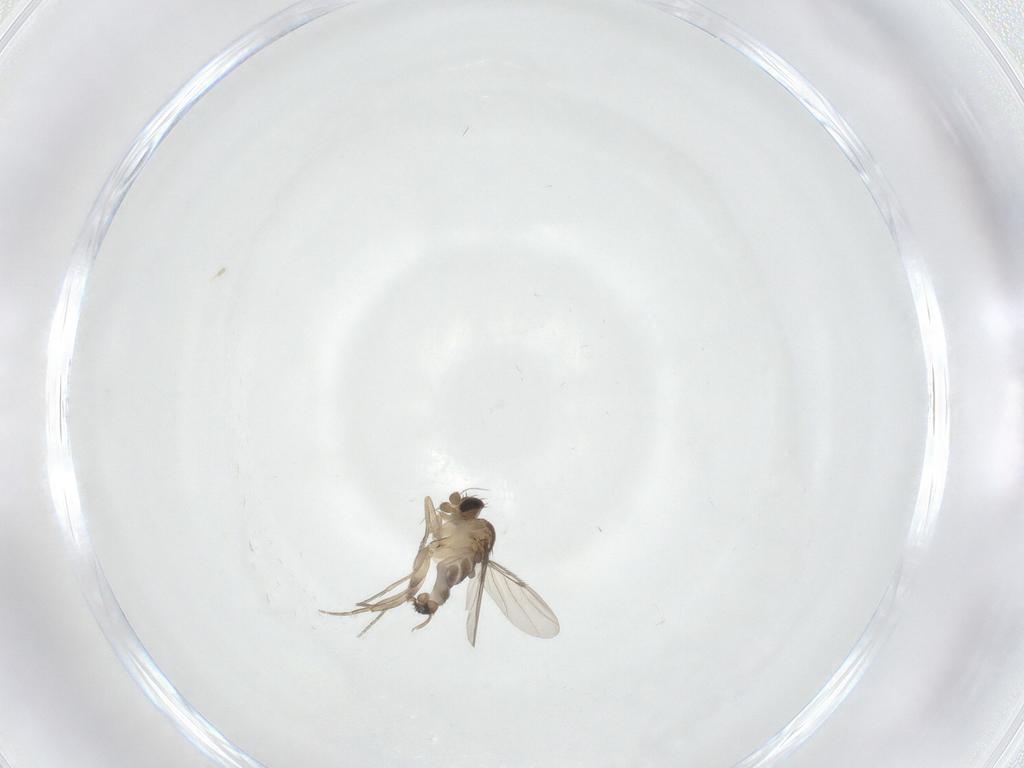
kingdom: Animalia
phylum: Arthropoda
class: Insecta
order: Diptera
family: Phoridae
